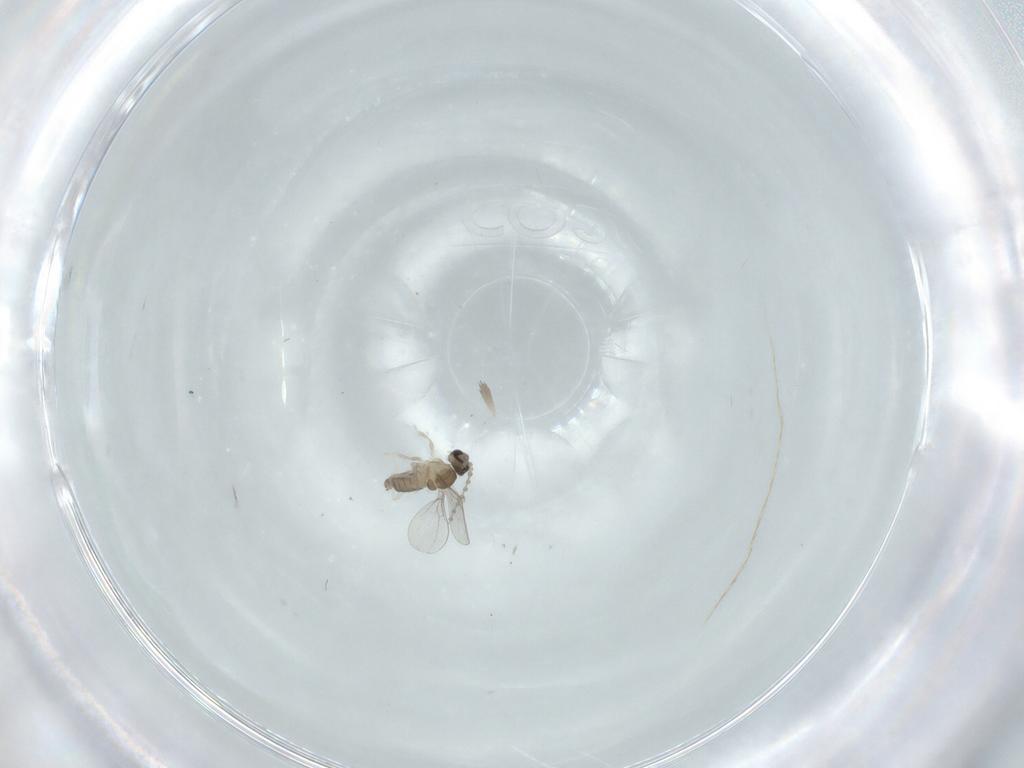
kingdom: Animalia
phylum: Arthropoda
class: Insecta
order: Diptera
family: Cecidomyiidae
